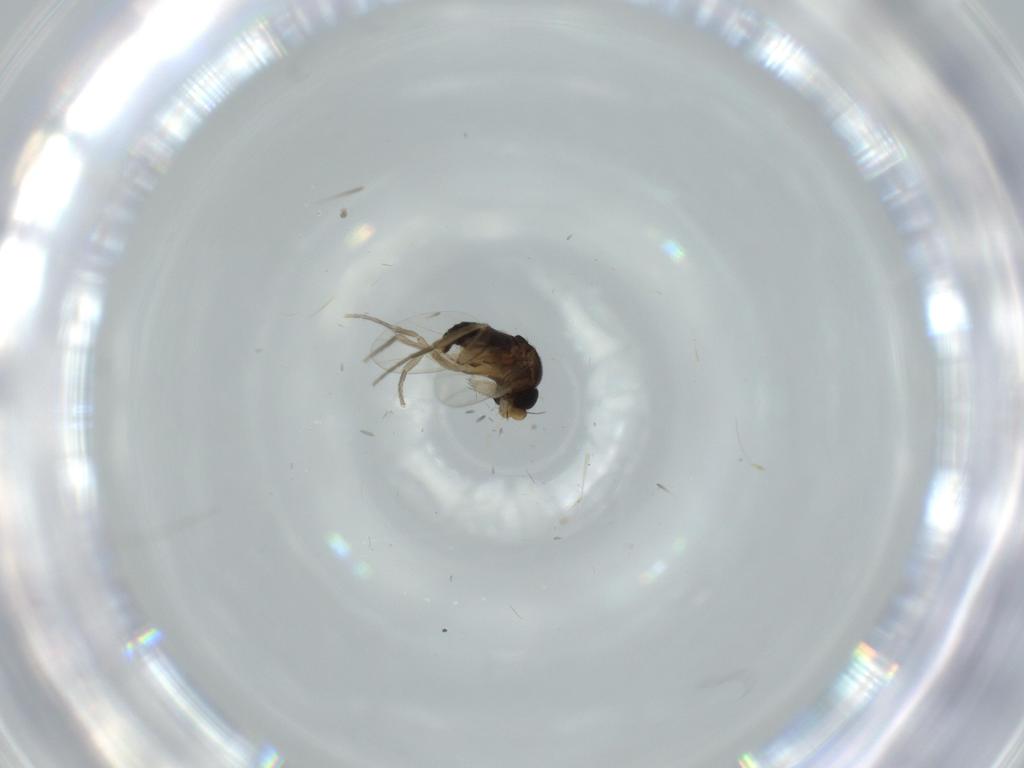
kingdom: Animalia
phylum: Arthropoda
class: Insecta
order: Diptera
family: Phoridae
